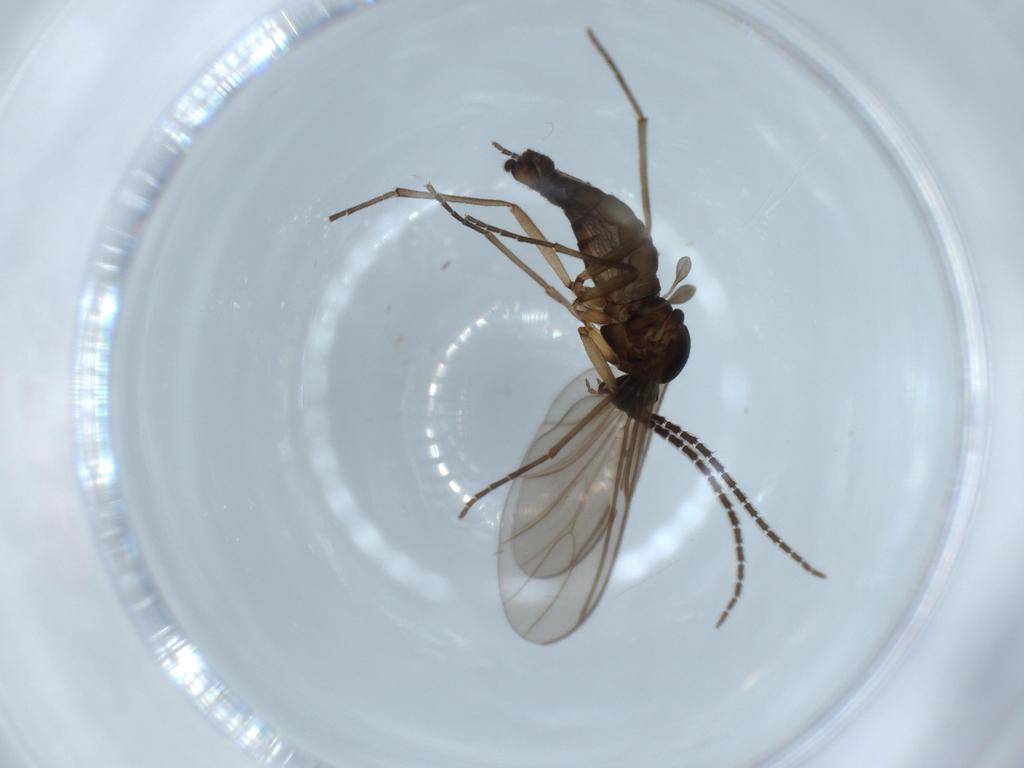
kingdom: Animalia
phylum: Arthropoda
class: Insecta
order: Diptera
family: Sciaridae
